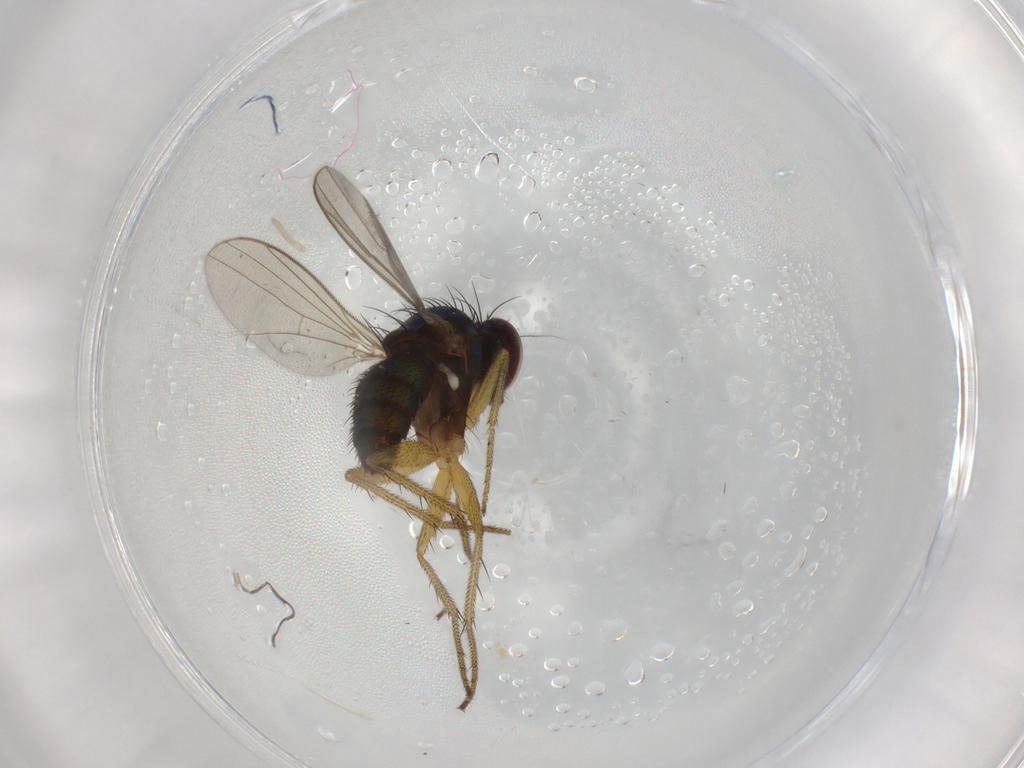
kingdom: Animalia
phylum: Arthropoda
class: Insecta
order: Diptera
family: Dolichopodidae
